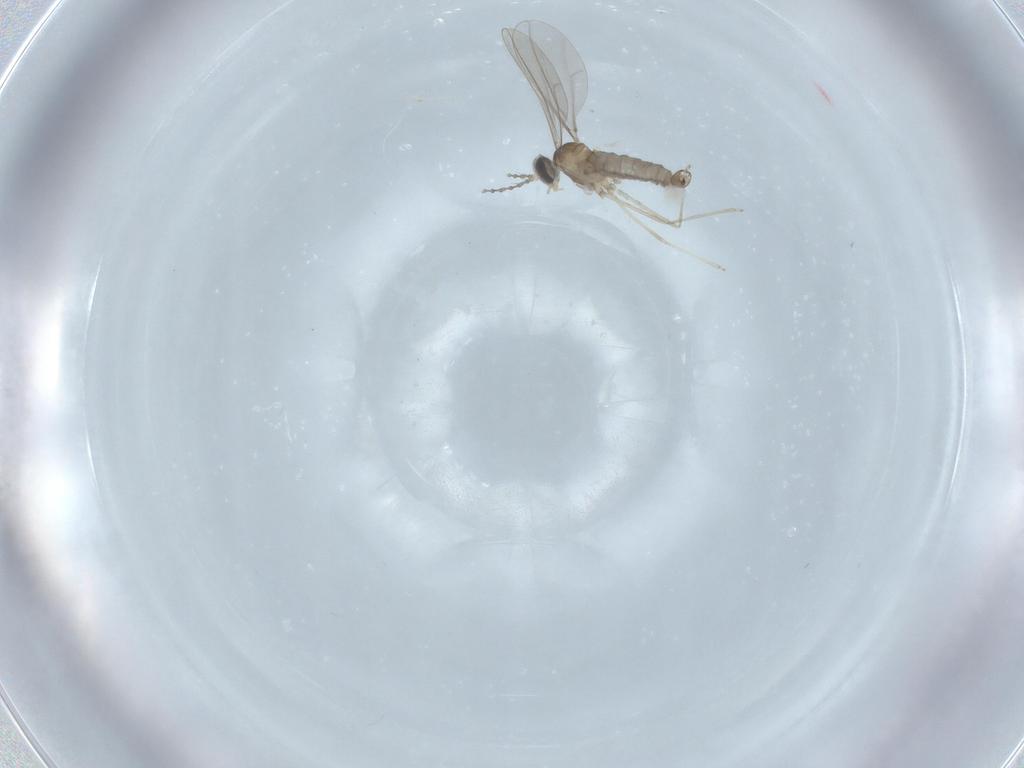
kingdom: Animalia
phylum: Arthropoda
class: Insecta
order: Diptera
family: Cecidomyiidae
